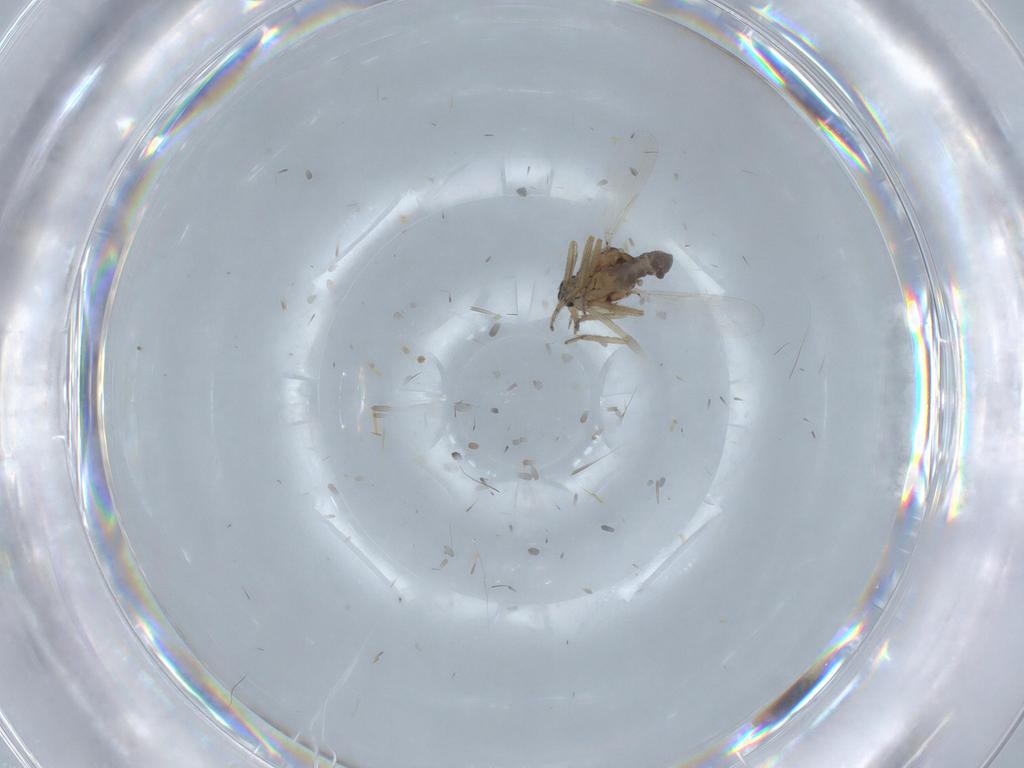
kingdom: Animalia
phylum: Arthropoda
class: Insecta
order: Diptera
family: Ceratopogonidae
